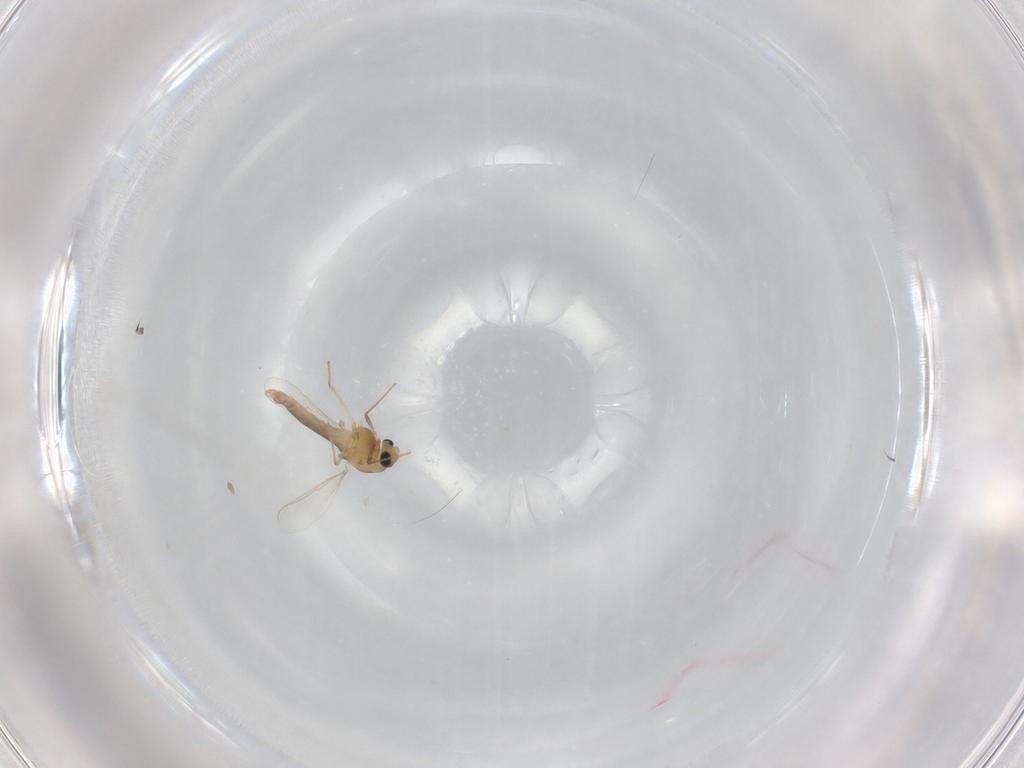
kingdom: Animalia
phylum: Arthropoda
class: Insecta
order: Diptera
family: Chironomidae
